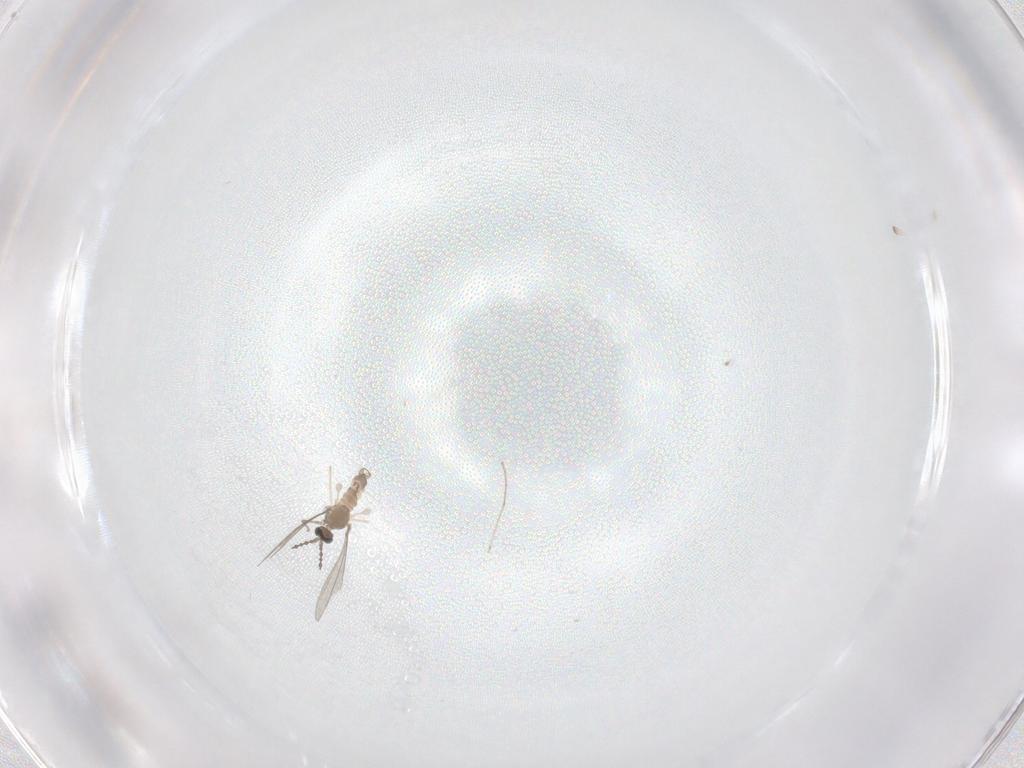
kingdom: Animalia
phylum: Arthropoda
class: Insecta
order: Diptera
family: Cecidomyiidae
